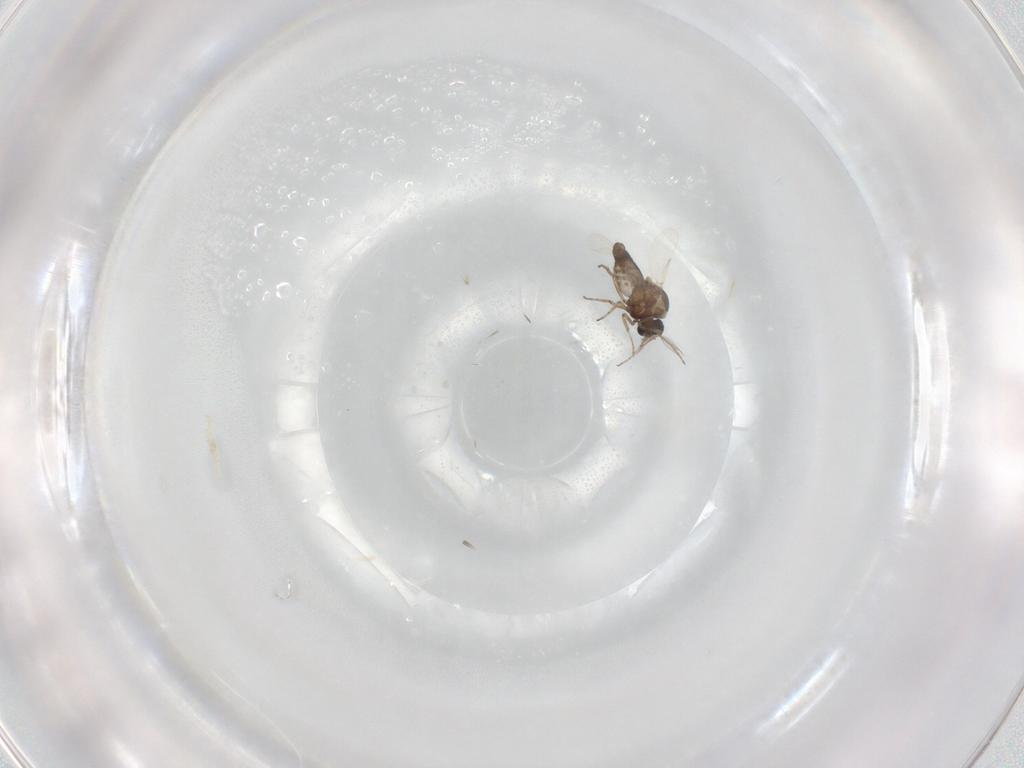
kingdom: Animalia
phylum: Arthropoda
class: Insecta
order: Diptera
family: Ceratopogonidae
